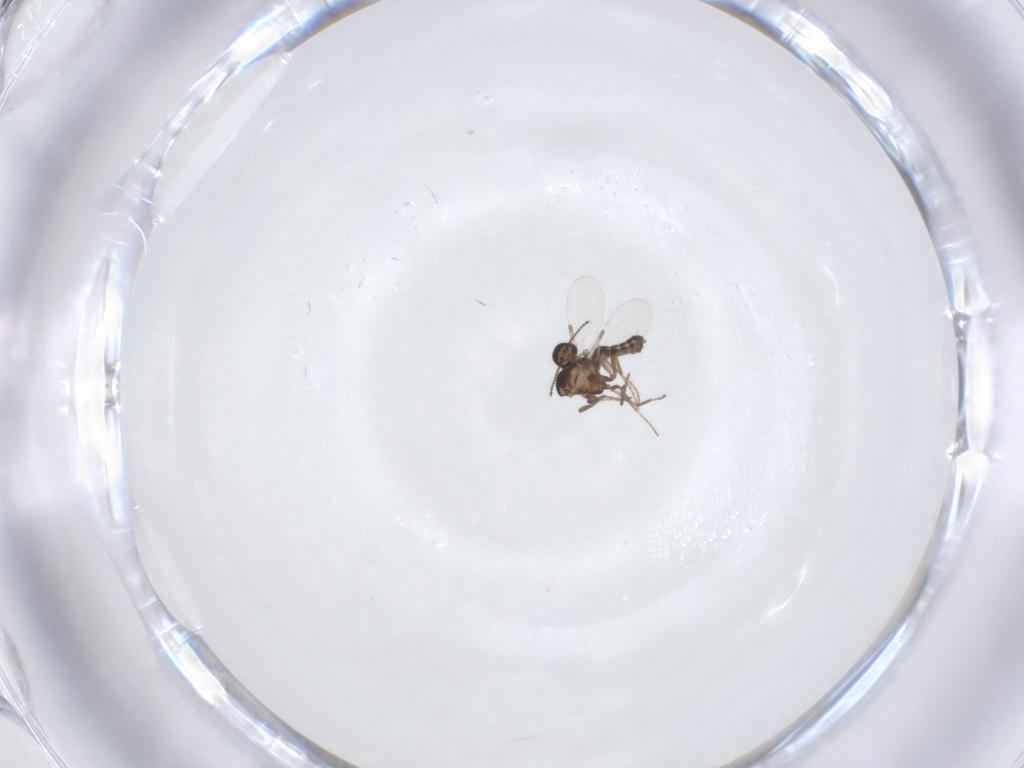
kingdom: Animalia
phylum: Arthropoda
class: Insecta
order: Diptera
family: Ceratopogonidae
